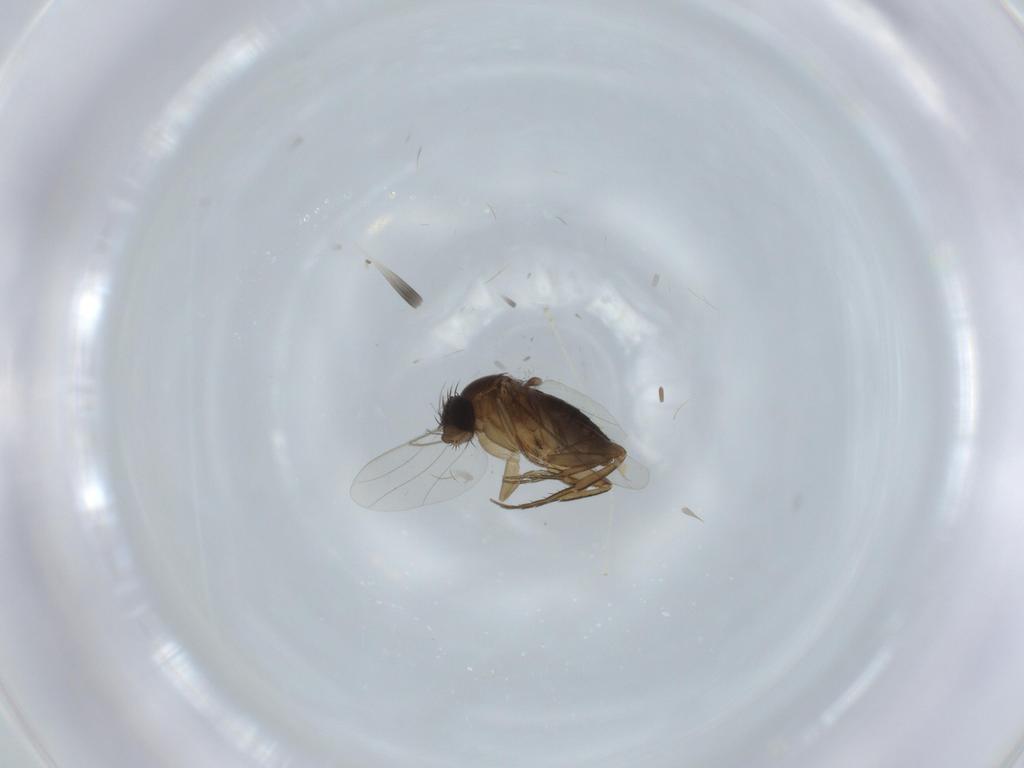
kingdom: Animalia
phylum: Arthropoda
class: Insecta
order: Diptera
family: Phoridae
